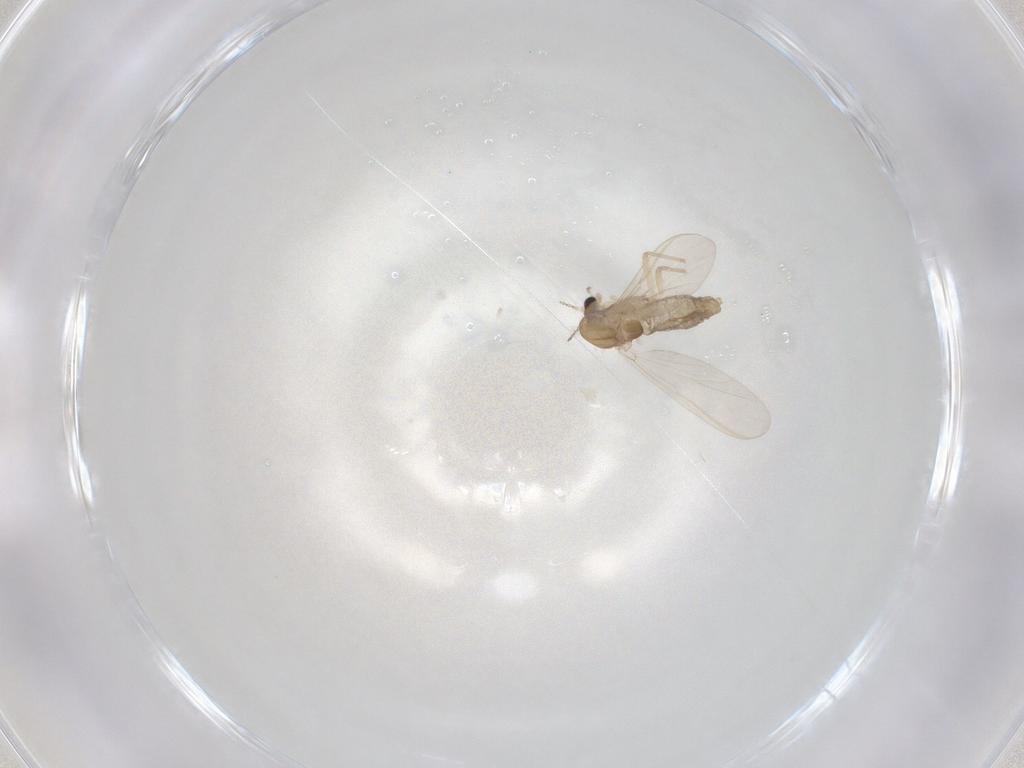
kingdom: Animalia
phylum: Arthropoda
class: Insecta
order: Diptera
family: Chironomidae
